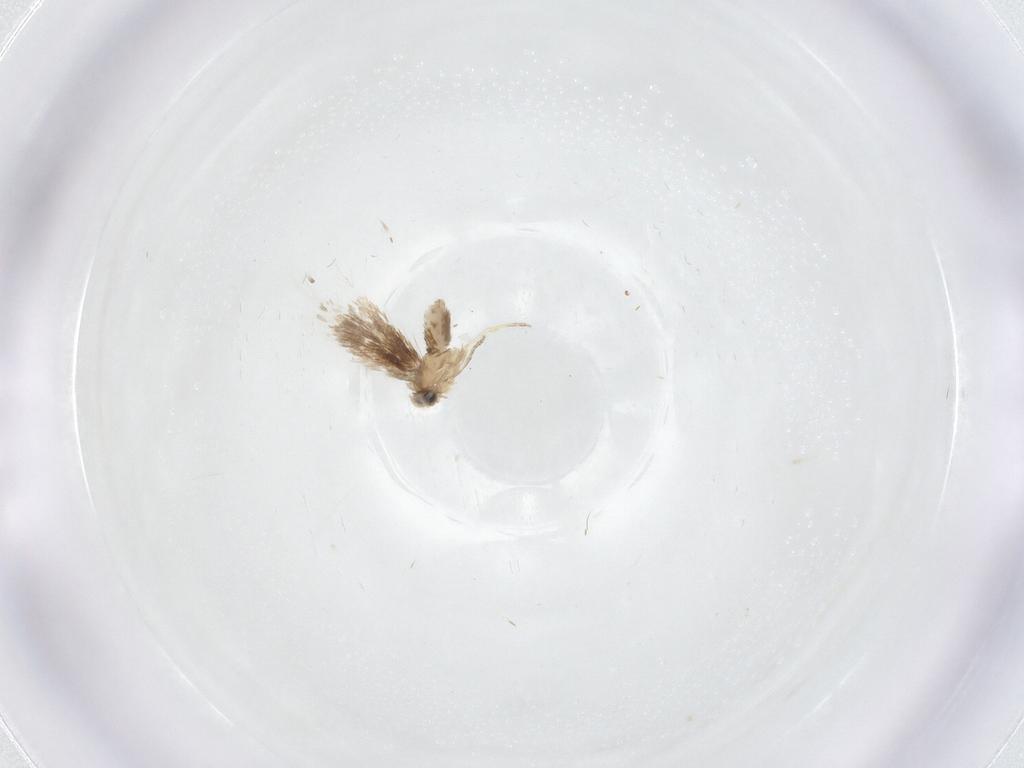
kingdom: Animalia
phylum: Arthropoda
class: Insecta
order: Lepidoptera
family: Nepticulidae
